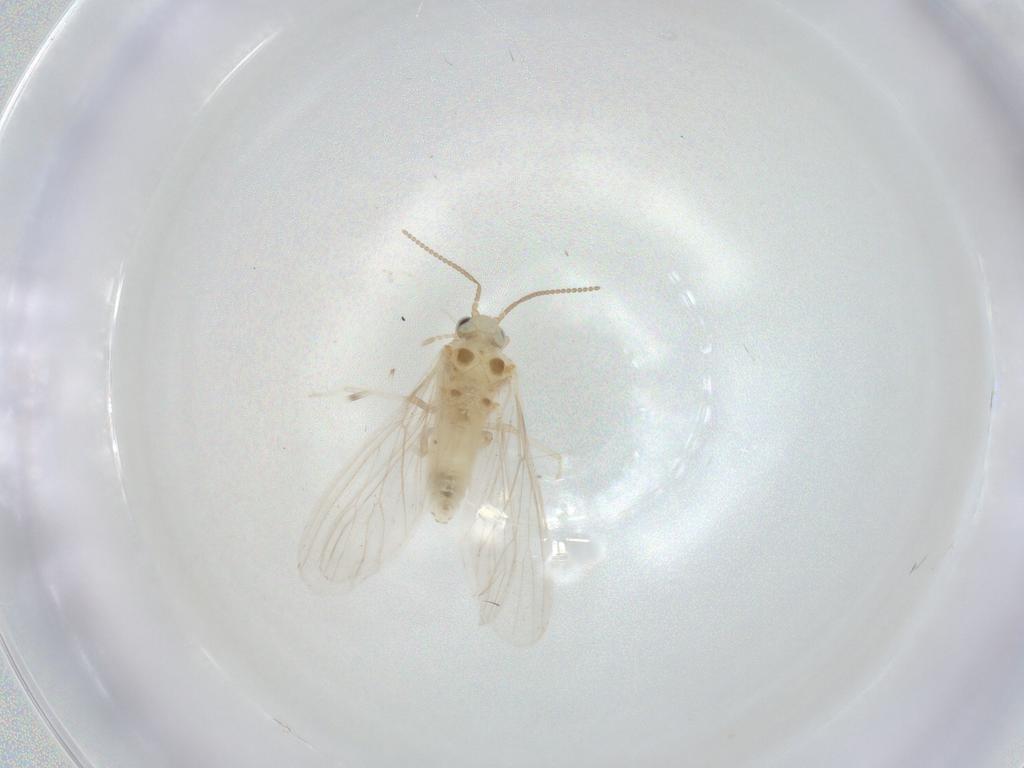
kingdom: Animalia
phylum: Arthropoda
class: Insecta
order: Neuroptera
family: Coniopterygidae
